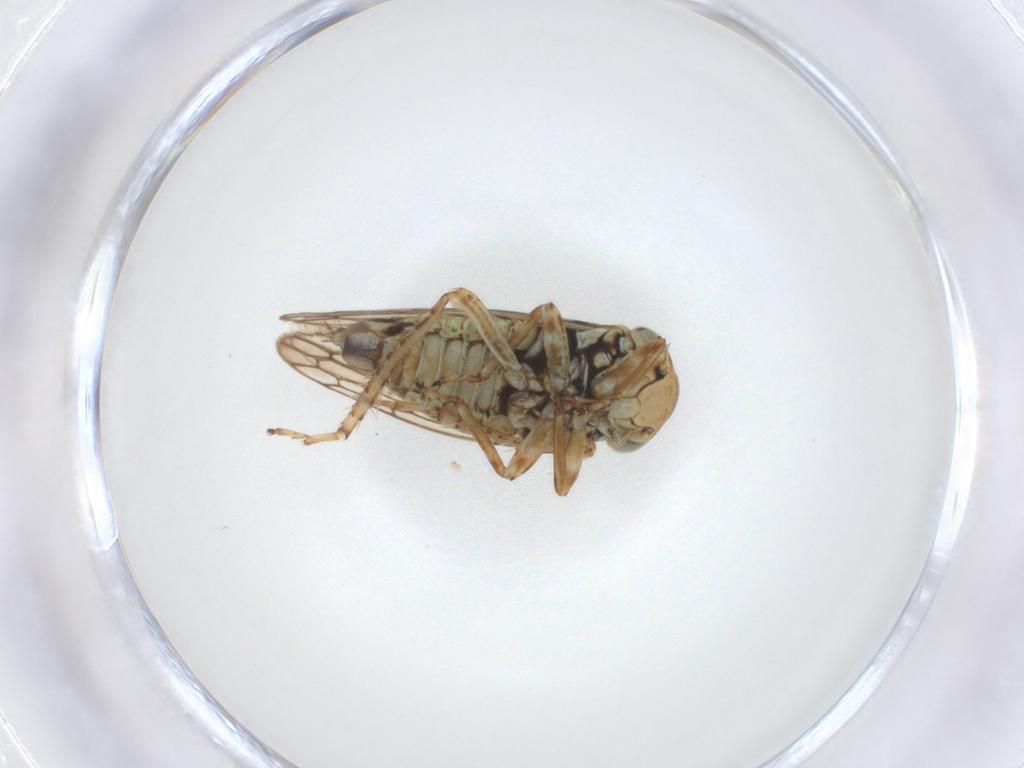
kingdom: Animalia
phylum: Arthropoda
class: Insecta
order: Hemiptera
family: Cicadellidae
